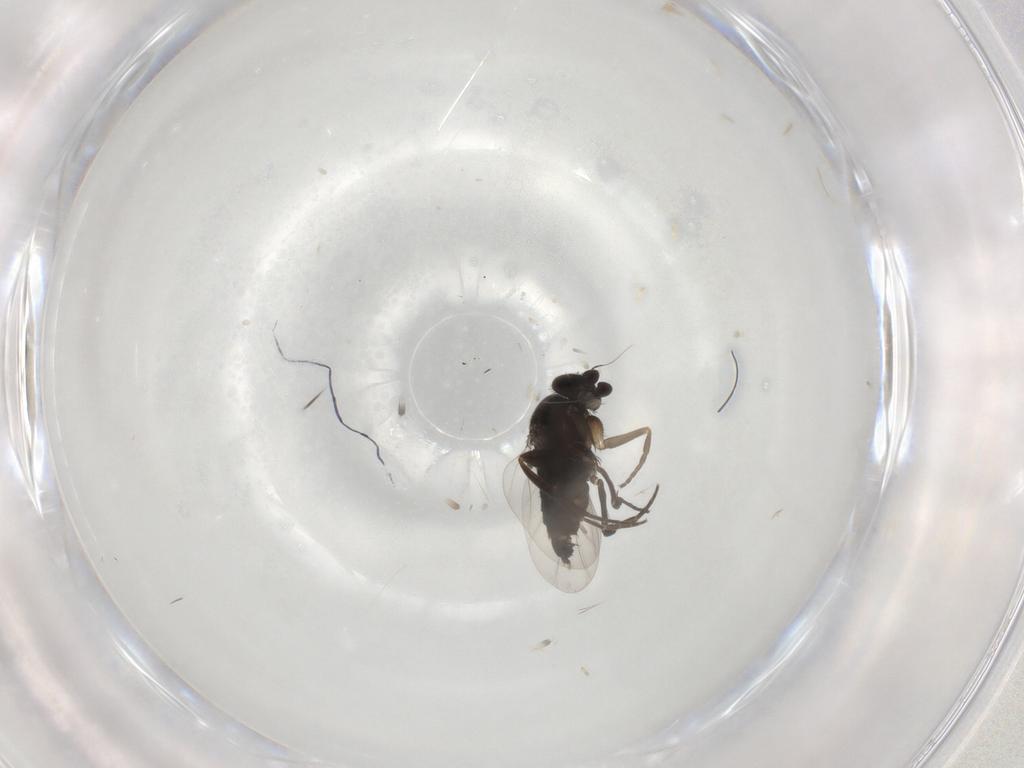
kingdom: Animalia
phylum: Arthropoda
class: Insecta
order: Diptera
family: Phoridae
